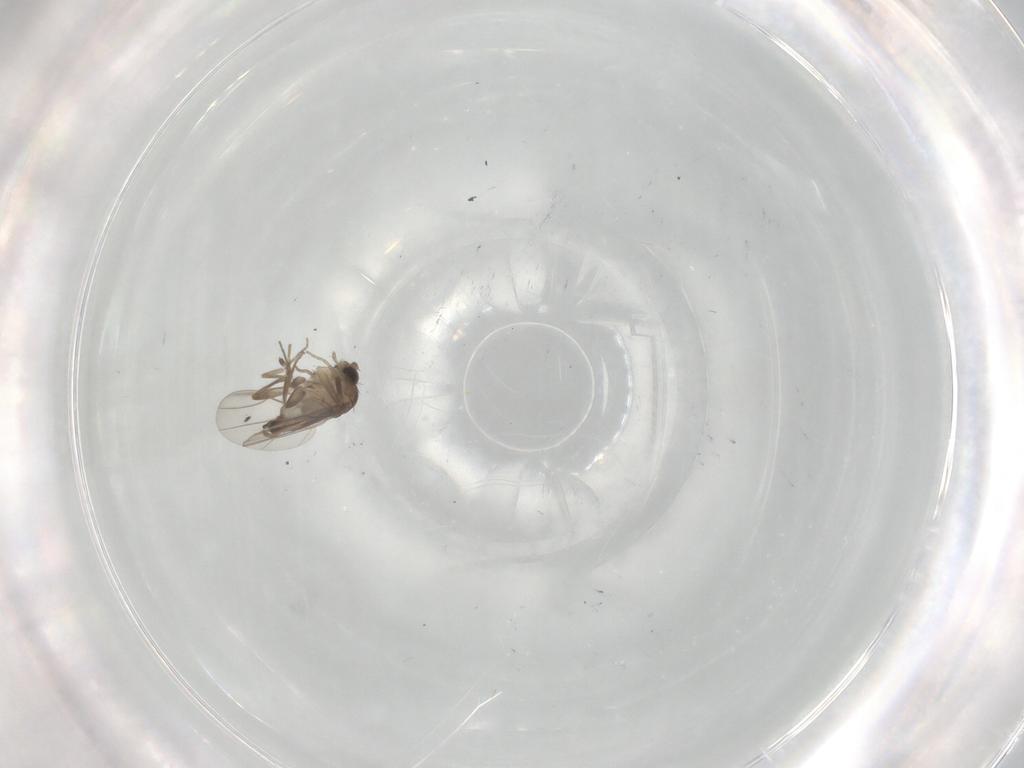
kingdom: Animalia
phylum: Arthropoda
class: Insecta
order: Diptera
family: Phoridae
